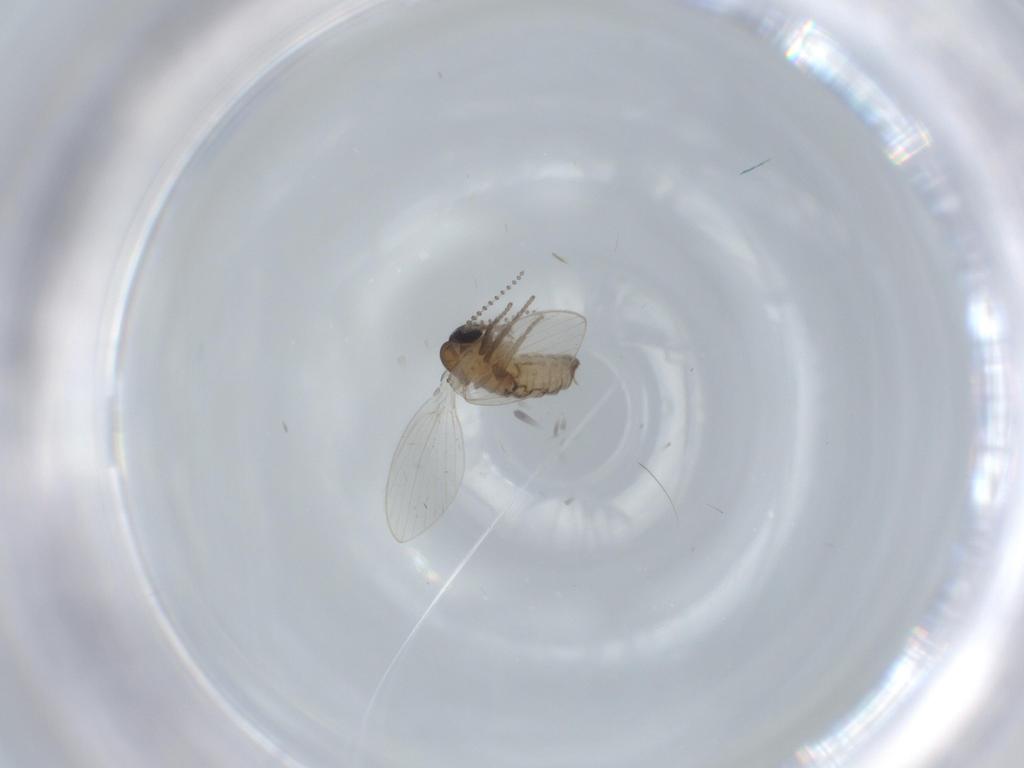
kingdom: Animalia
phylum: Arthropoda
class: Insecta
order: Diptera
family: Psychodidae
